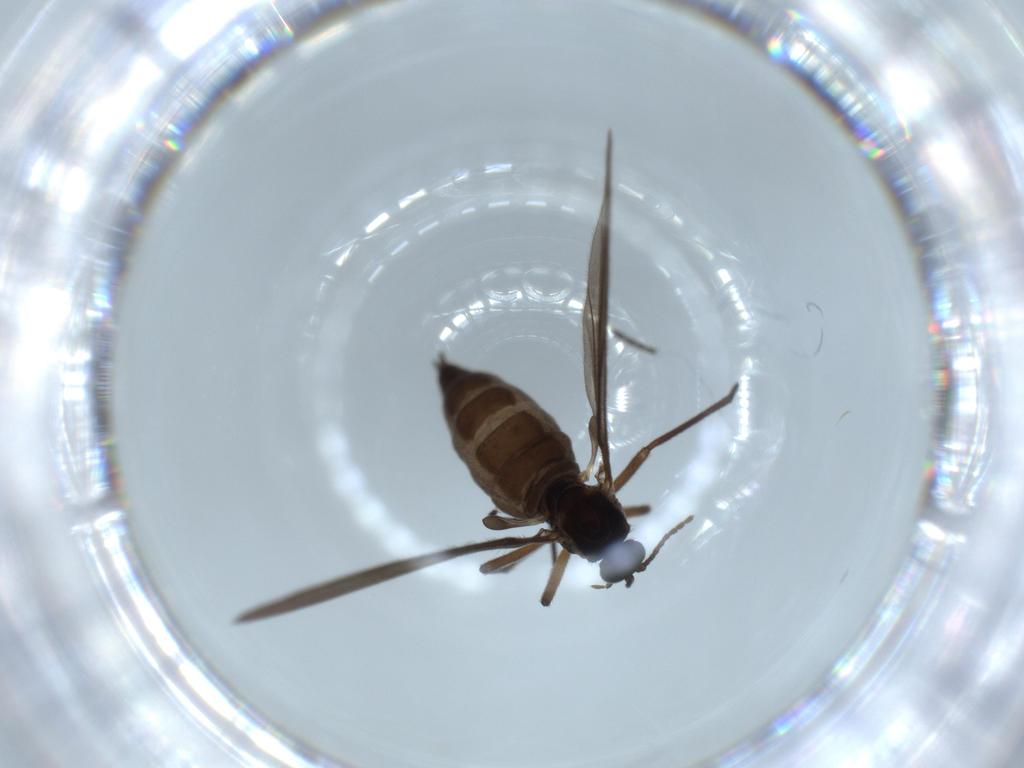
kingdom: Animalia
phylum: Arthropoda
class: Insecta
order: Diptera
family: Sciaridae
